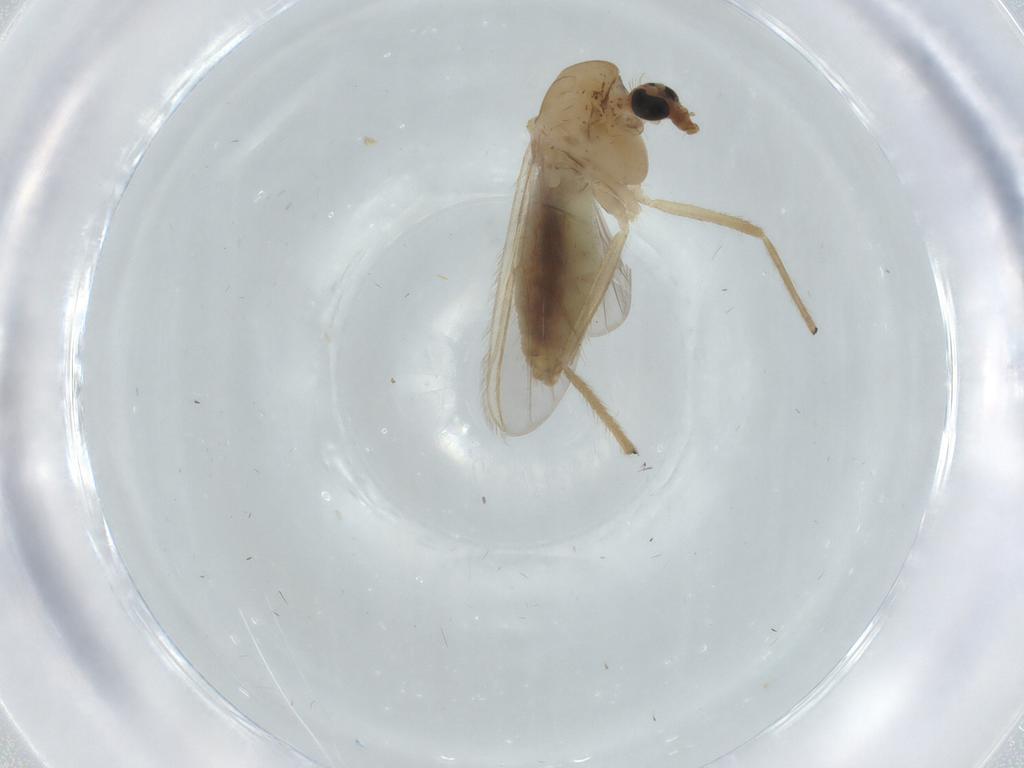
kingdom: Animalia
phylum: Arthropoda
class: Insecta
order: Diptera
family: Chironomidae
